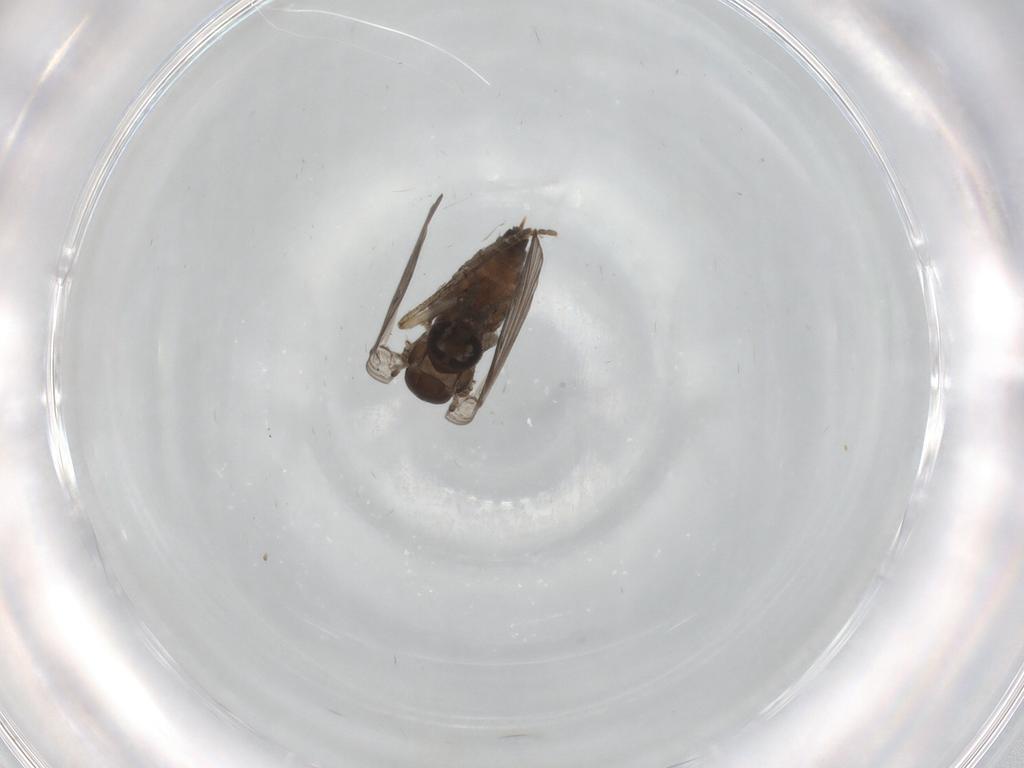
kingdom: Animalia
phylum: Arthropoda
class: Insecta
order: Diptera
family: Psychodidae
